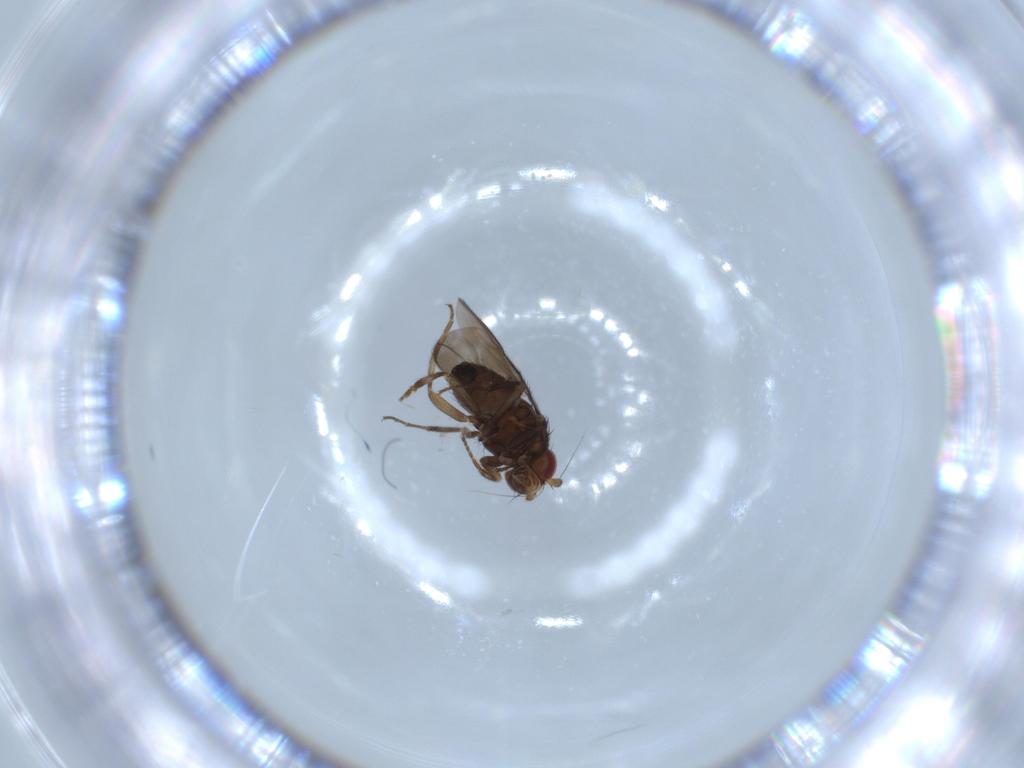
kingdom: Animalia
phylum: Arthropoda
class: Insecta
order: Diptera
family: Sphaeroceridae
